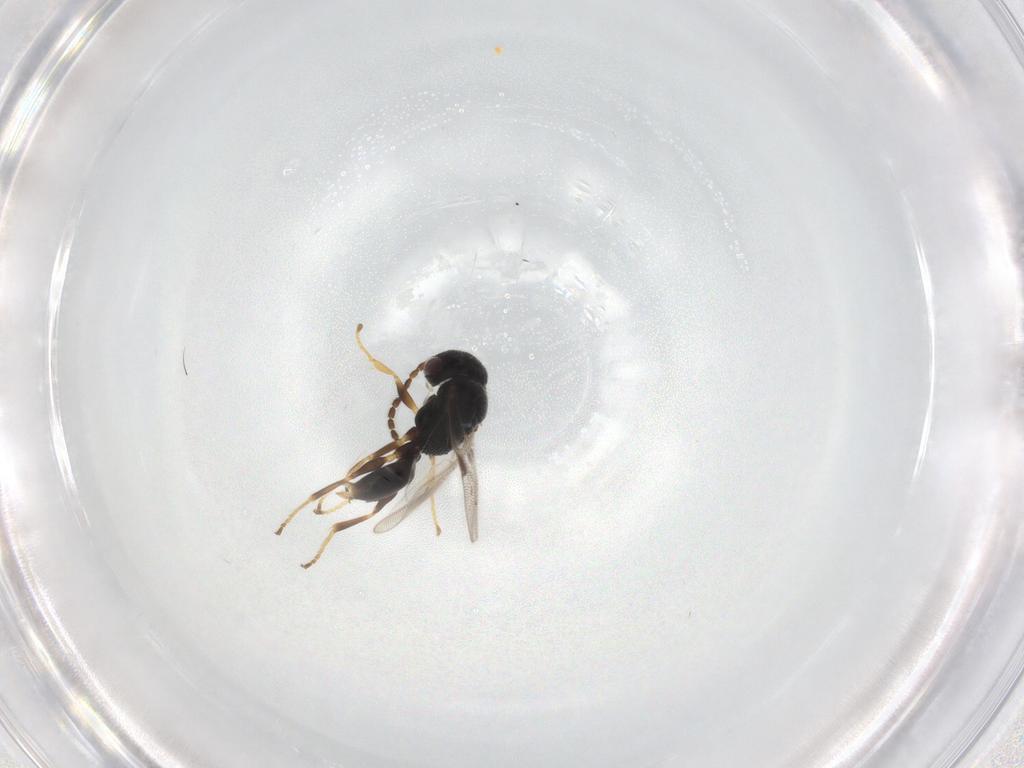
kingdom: Animalia
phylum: Arthropoda
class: Insecta
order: Hymenoptera
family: Dryinidae
